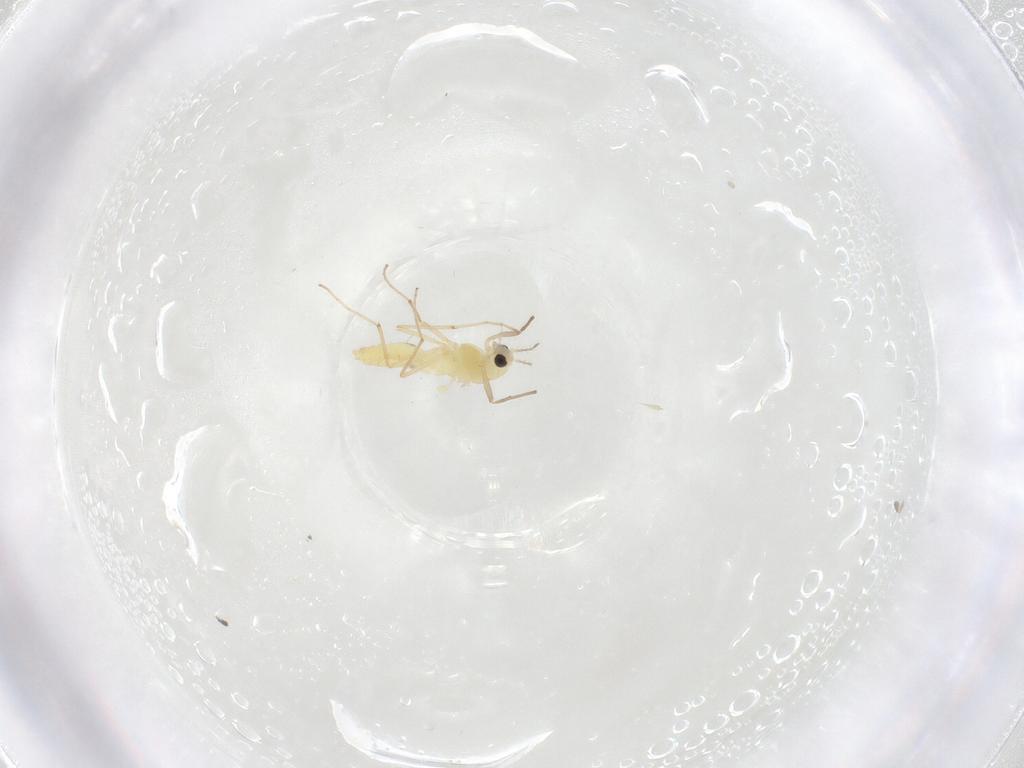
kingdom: Animalia
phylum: Arthropoda
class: Insecta
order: Diptera
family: Chironomidae
